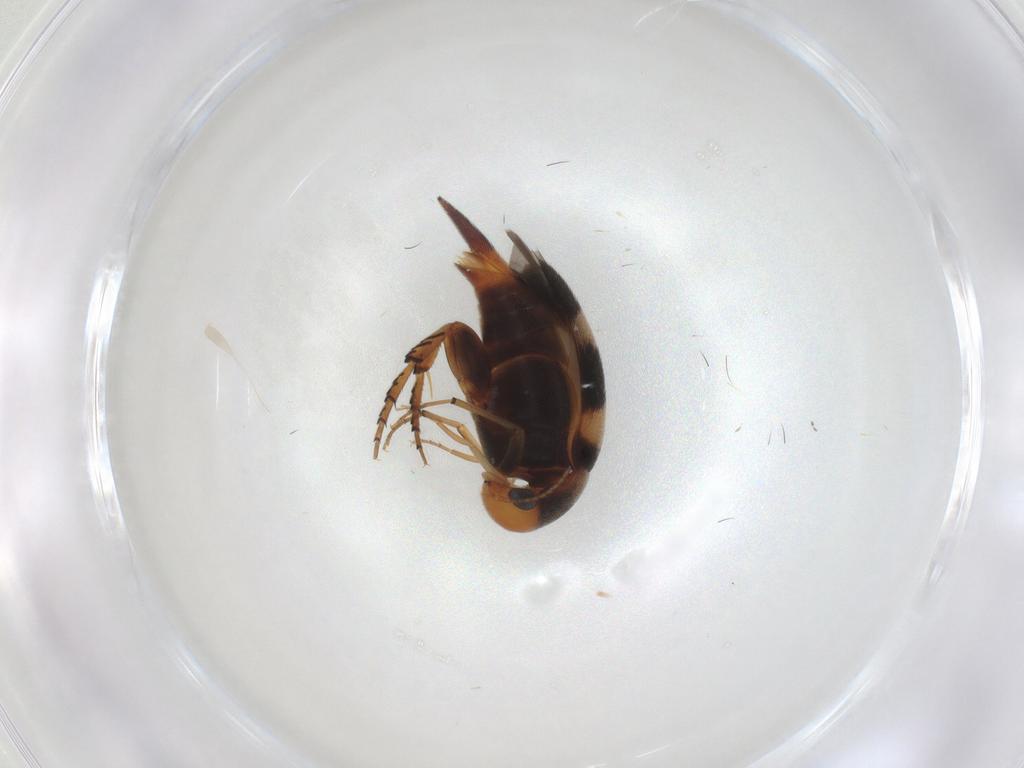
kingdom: Animalia
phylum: Arthropoda
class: Insecta
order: Coleoptera
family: Mordellidae
